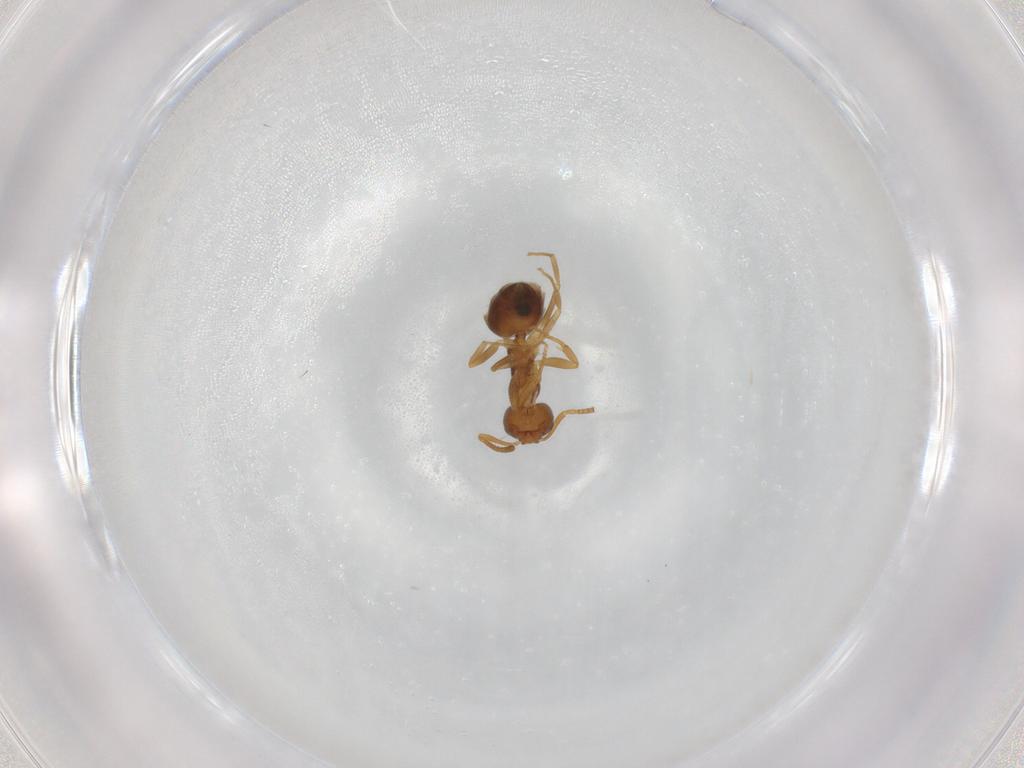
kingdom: Animalia
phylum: Arthropoda
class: Insecta
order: Hymenoptera
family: Formicidae
